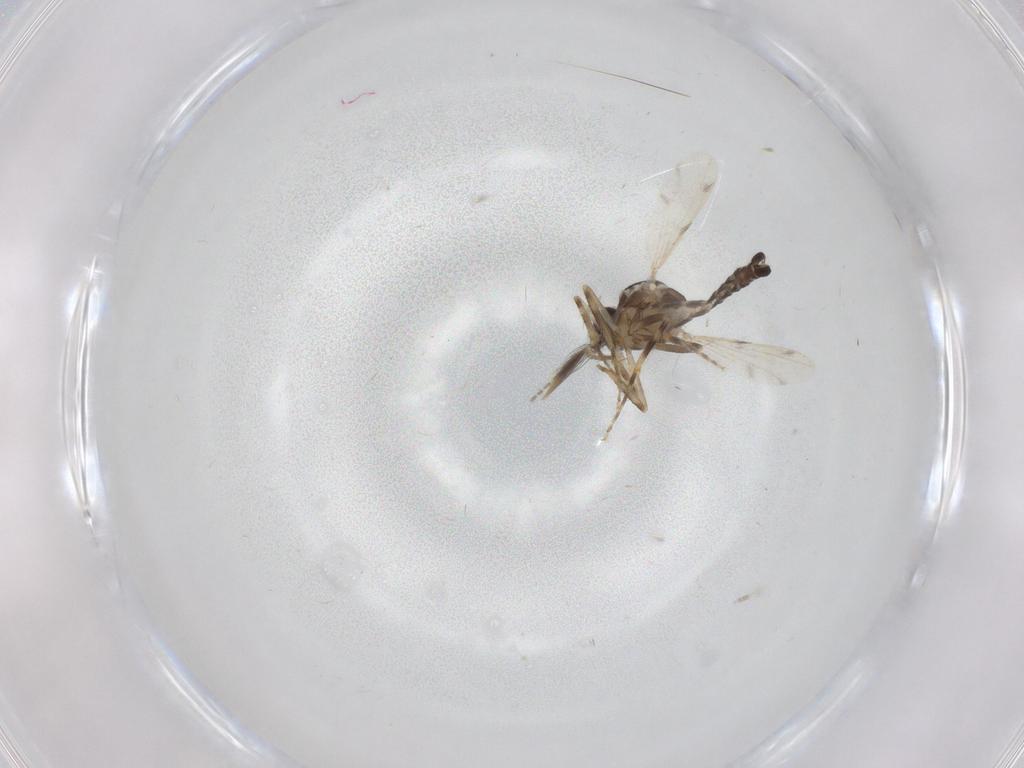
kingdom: Animalia
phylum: Arthropoda
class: Insecta
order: Diptera
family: Ceratopogonidae
